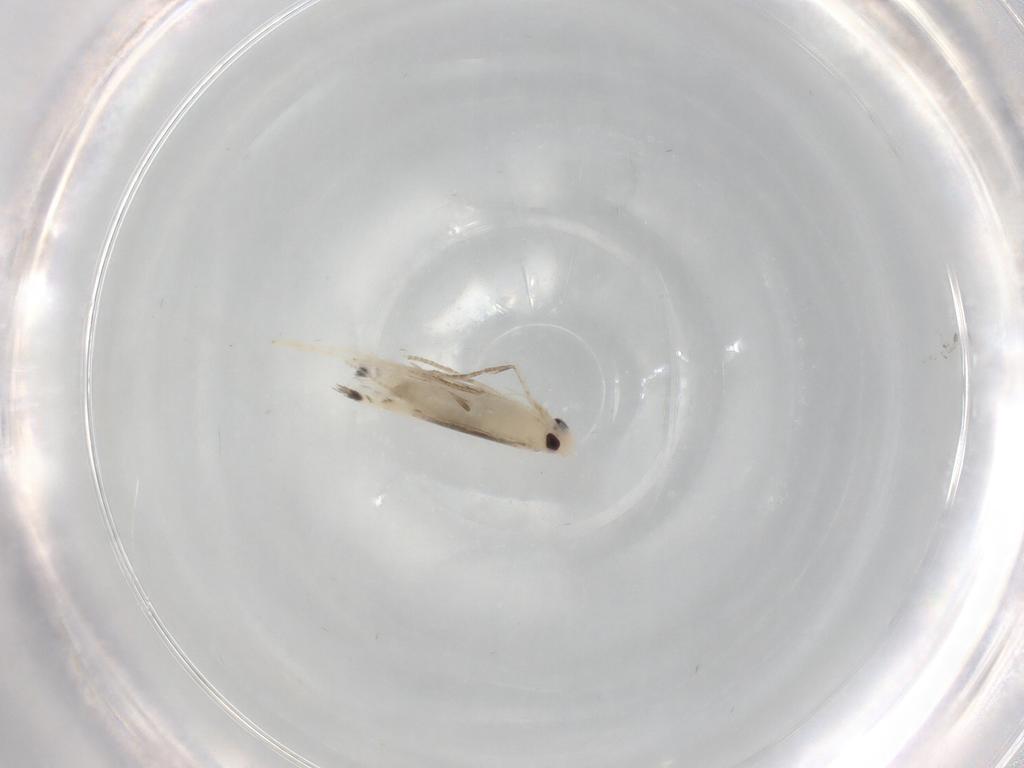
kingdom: Animalia
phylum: Arthropoda
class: Insecta
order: Lepidoptera
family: Gracillariidae
